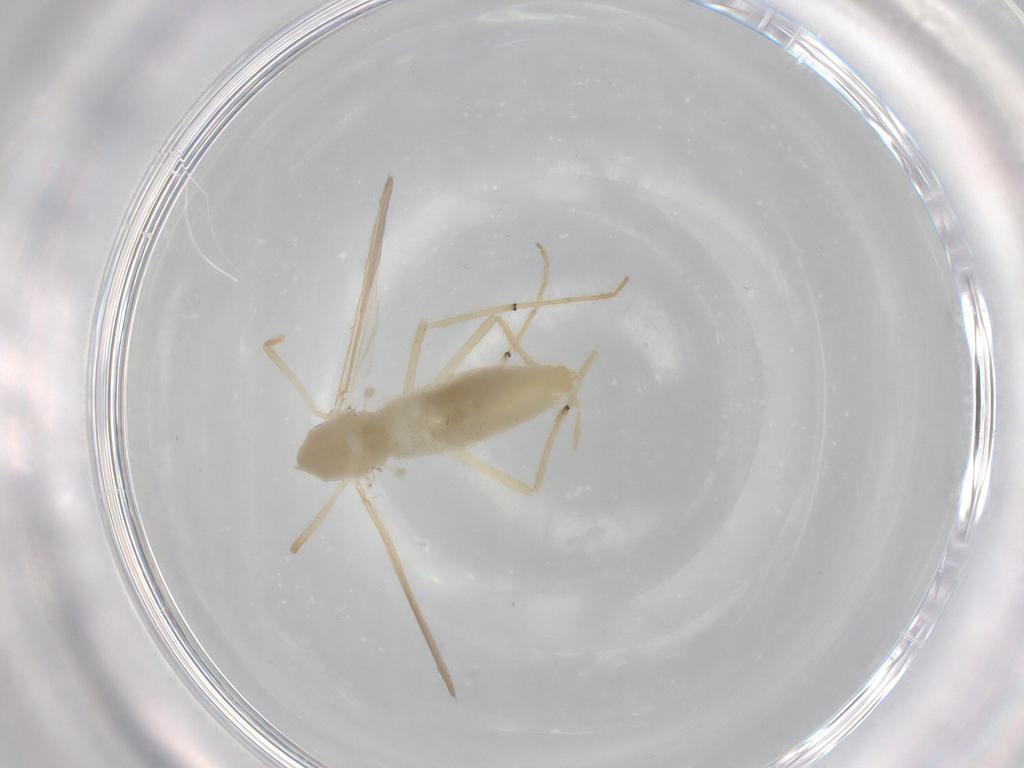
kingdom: Animalia
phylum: Arthropoda
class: Insecta
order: Diptera
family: Chironomidae
